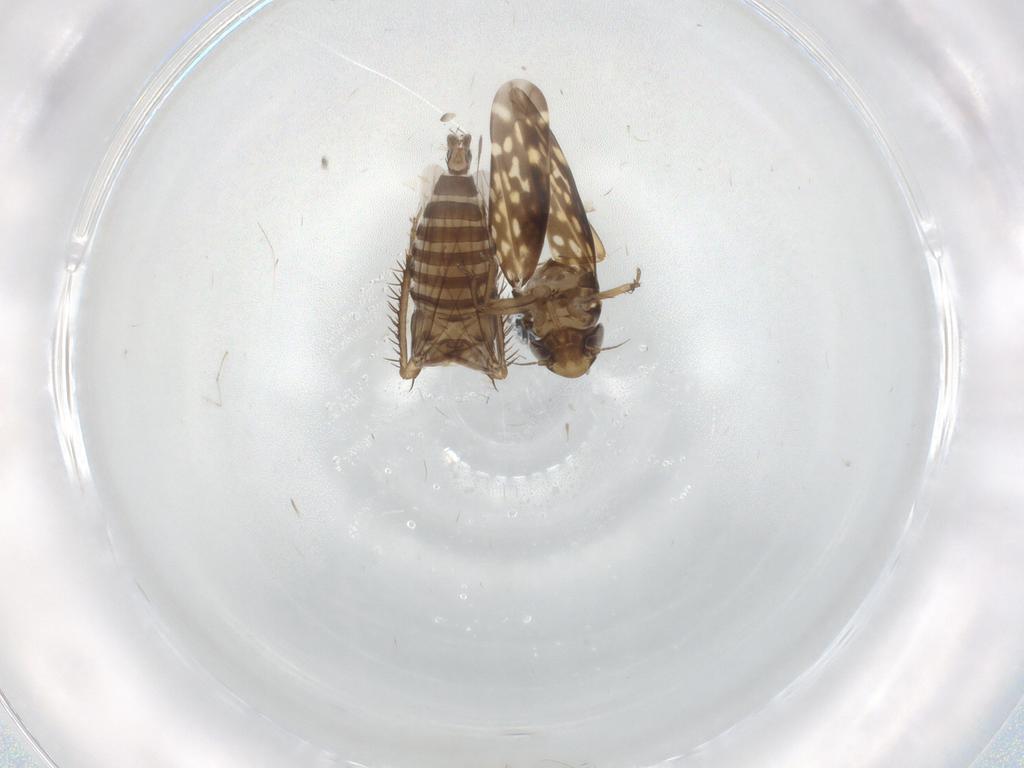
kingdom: Animalia
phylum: Arthropoda
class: Insecta
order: Hemiptera
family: Cicadellidae
